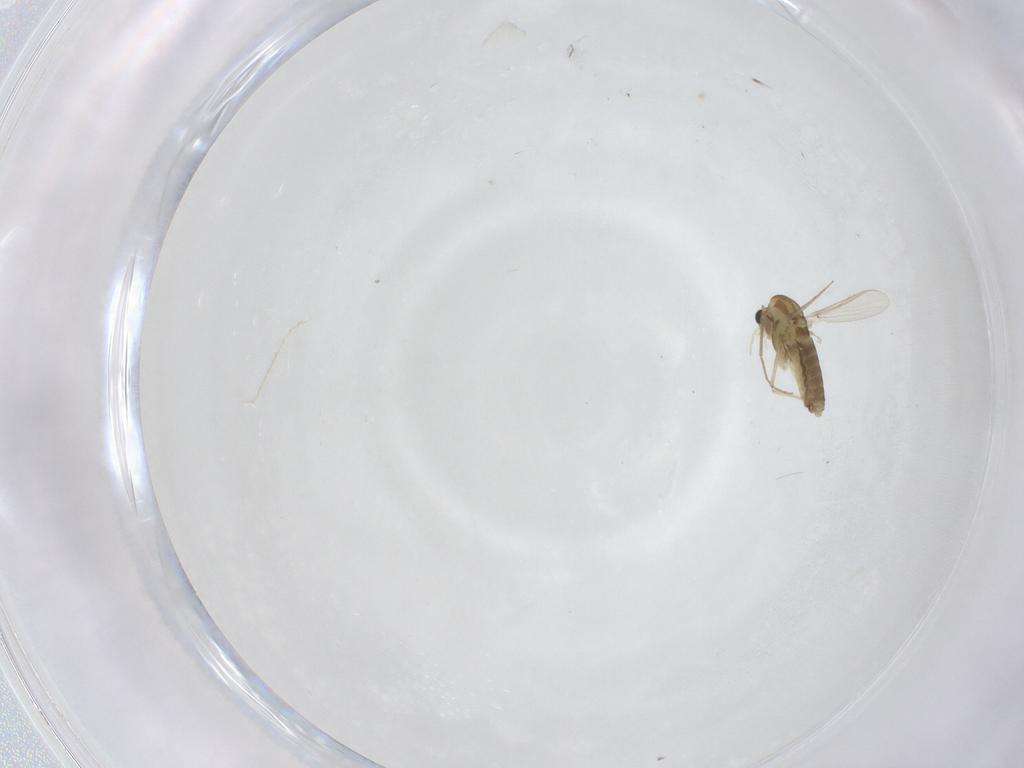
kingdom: Animalia
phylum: Arthropoda
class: Insecta
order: Diptera
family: Chironomidae
